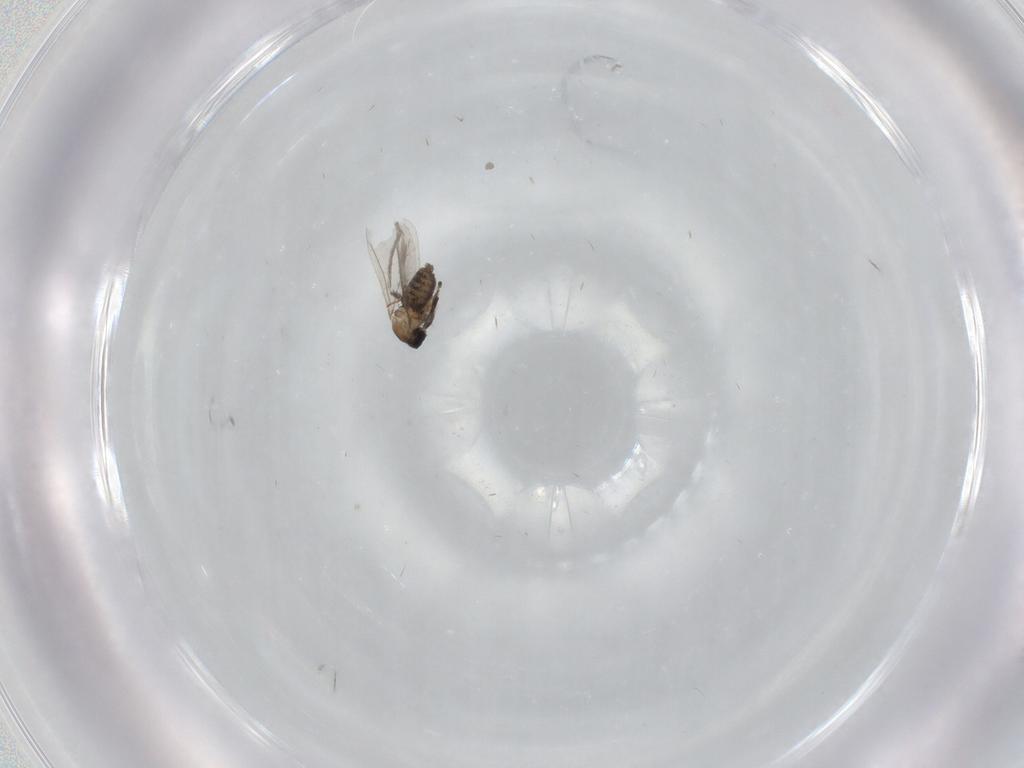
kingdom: Animalia
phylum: Arthropoda
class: Insecta
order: Diptera
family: Cecidomyiidae
